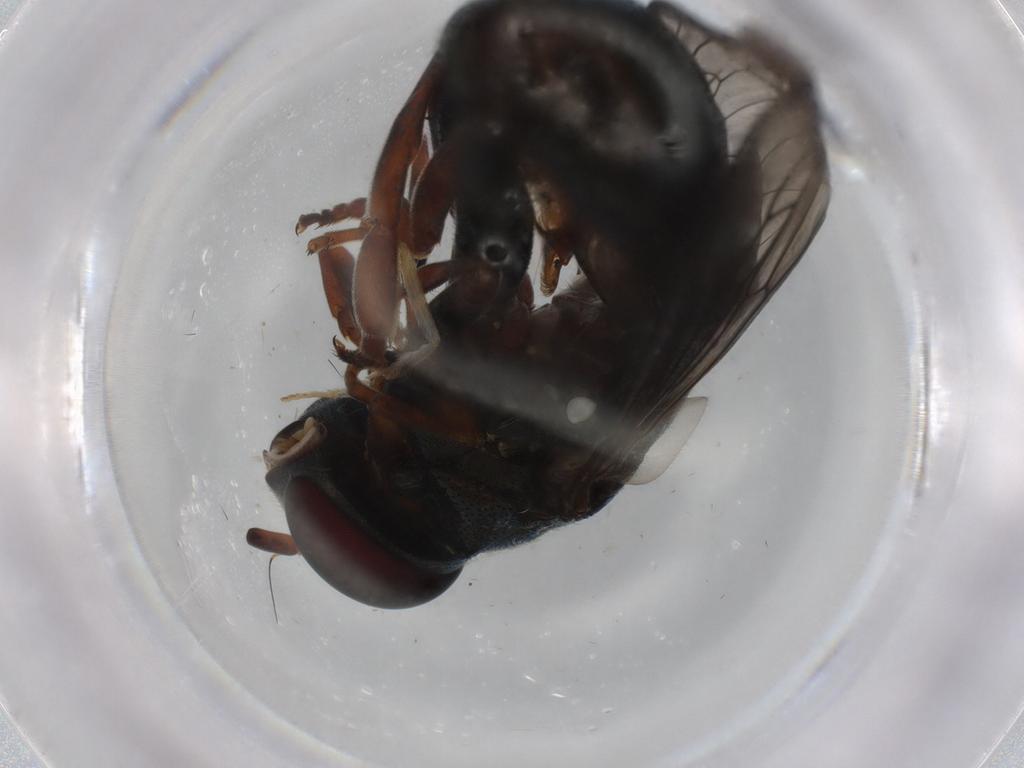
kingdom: Animalia
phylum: Arthropoda
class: Insecta
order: Diptera
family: Syrphidae
